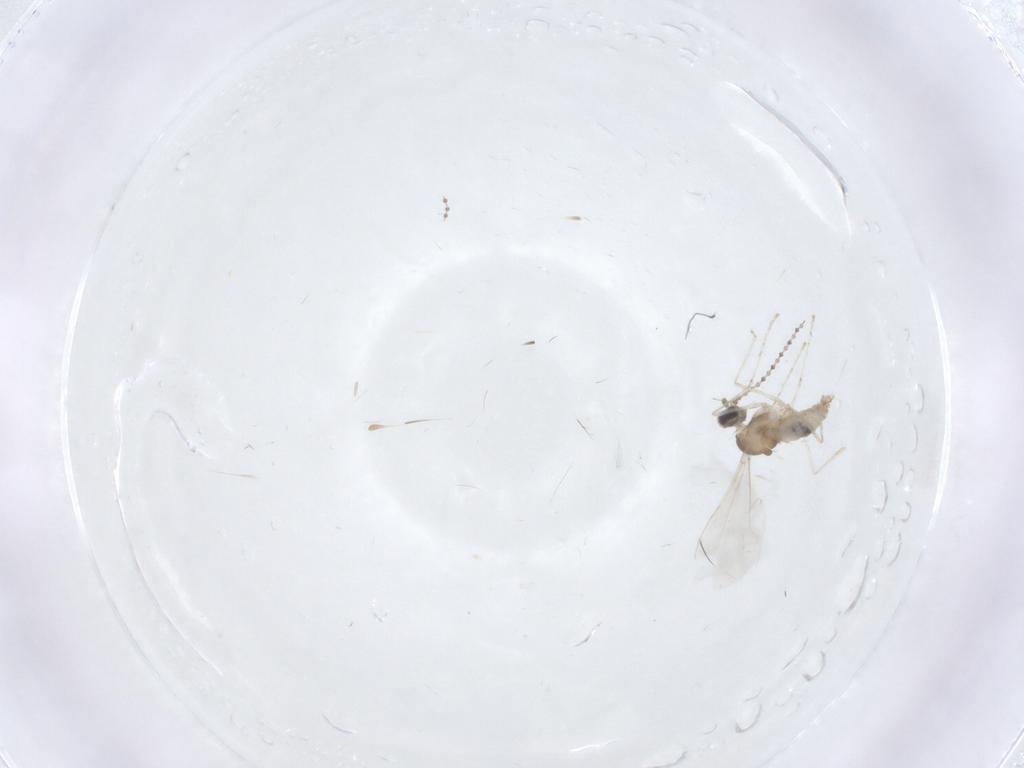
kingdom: Animalia
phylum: Arthropoda
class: Insecta
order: Diptera
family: Cecidomyiidae
